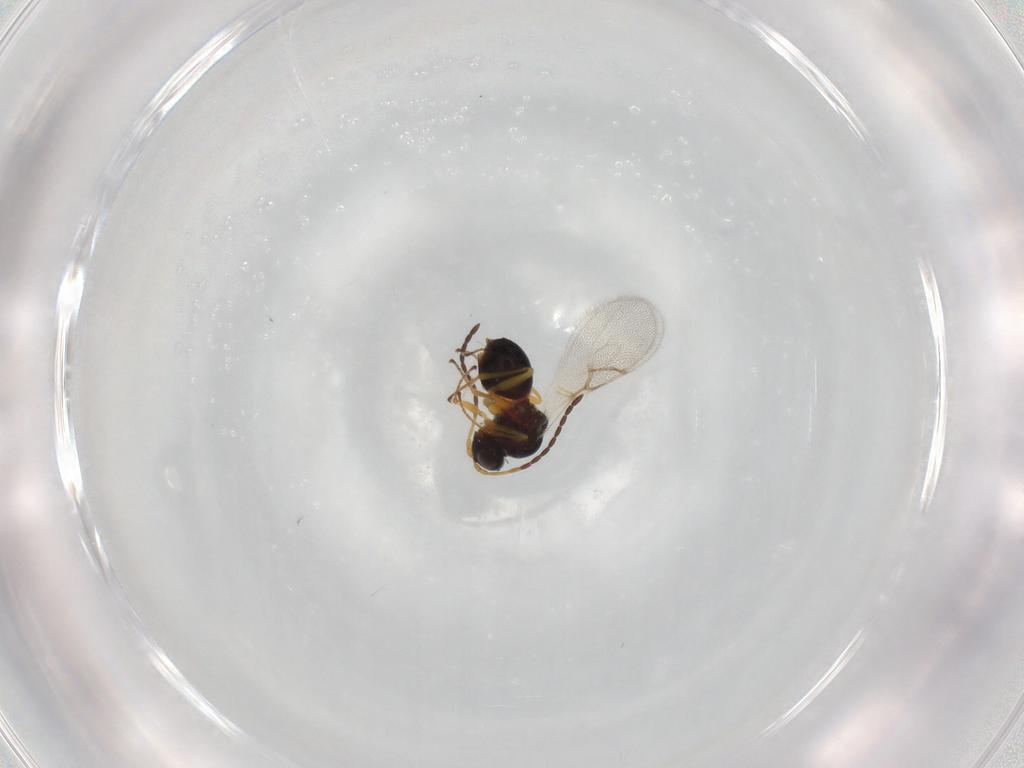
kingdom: Animalia
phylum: Arthropoda
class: Insecta
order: Hymenoptera
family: Figitidae
